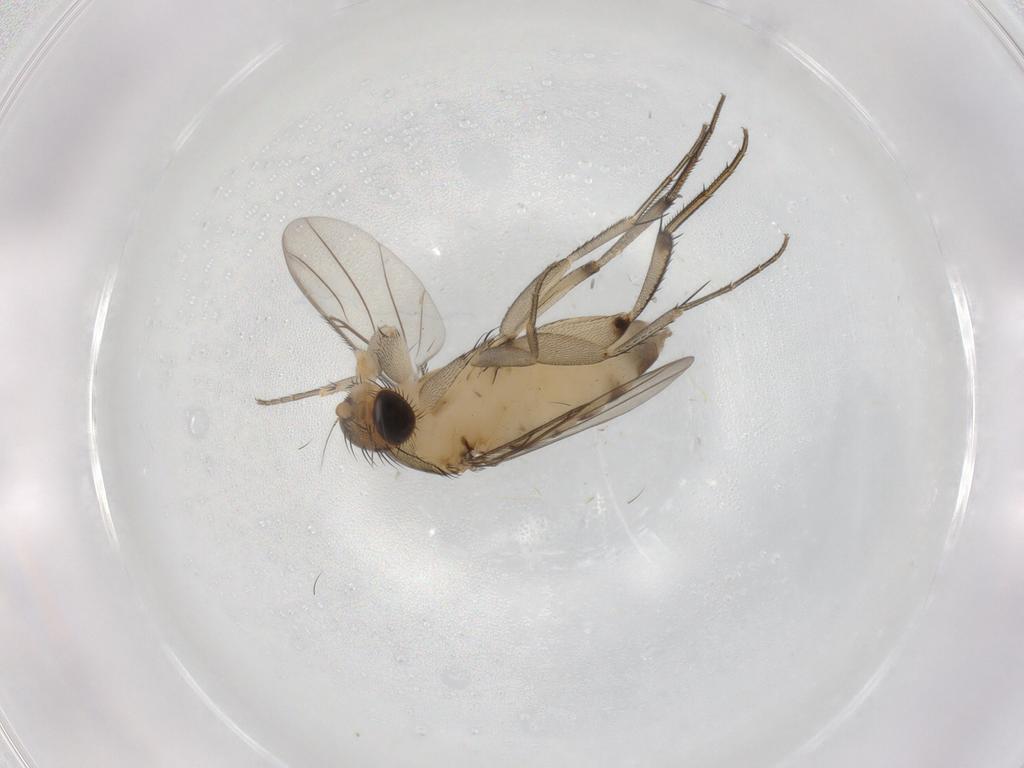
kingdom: Animalia
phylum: Arthropoda
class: Insecta
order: Diptera
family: Phoridae
